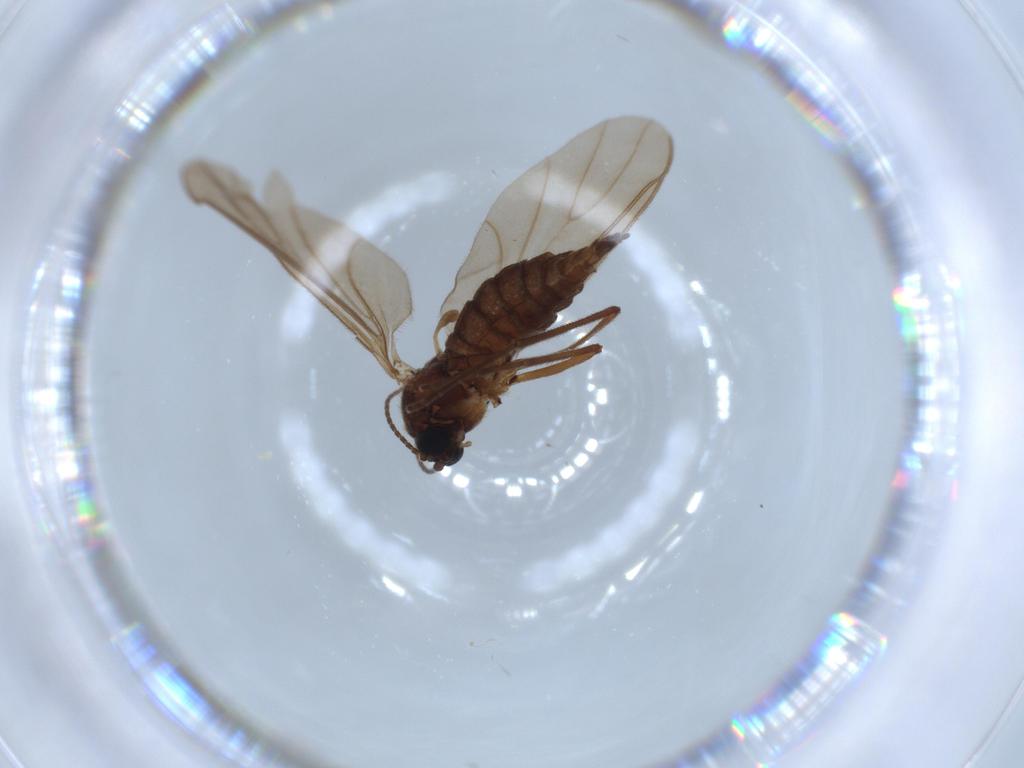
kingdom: Animalia
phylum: Arthropoda
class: Insecta
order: Diptera
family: Sciaridae
